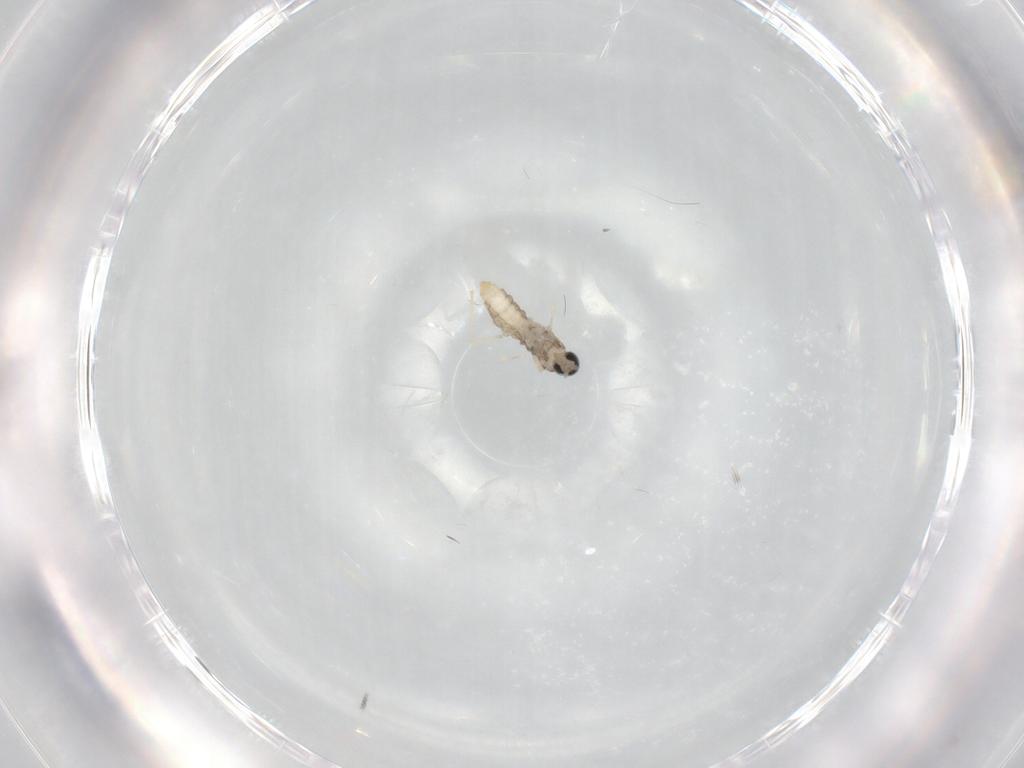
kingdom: Animalia
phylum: Arthropoda
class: Insecta
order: Diptera
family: Cecidomyiidae
